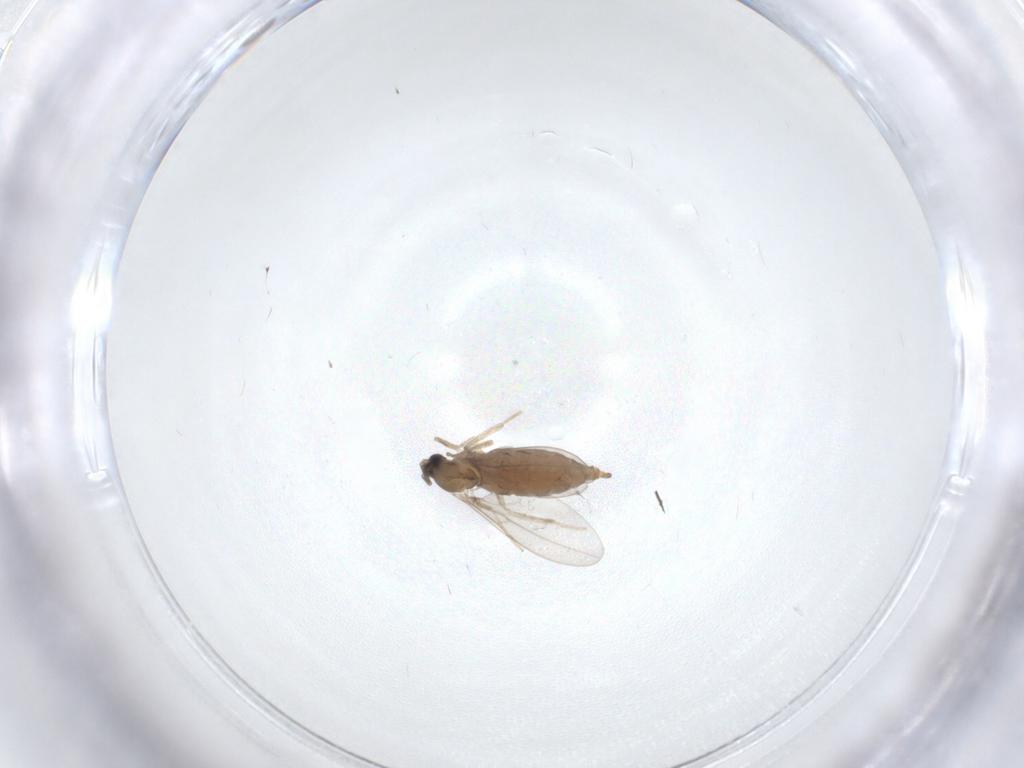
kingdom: Animalia
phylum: Arthropoda
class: Insecta
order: Diptera
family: Cecidomyiidae
